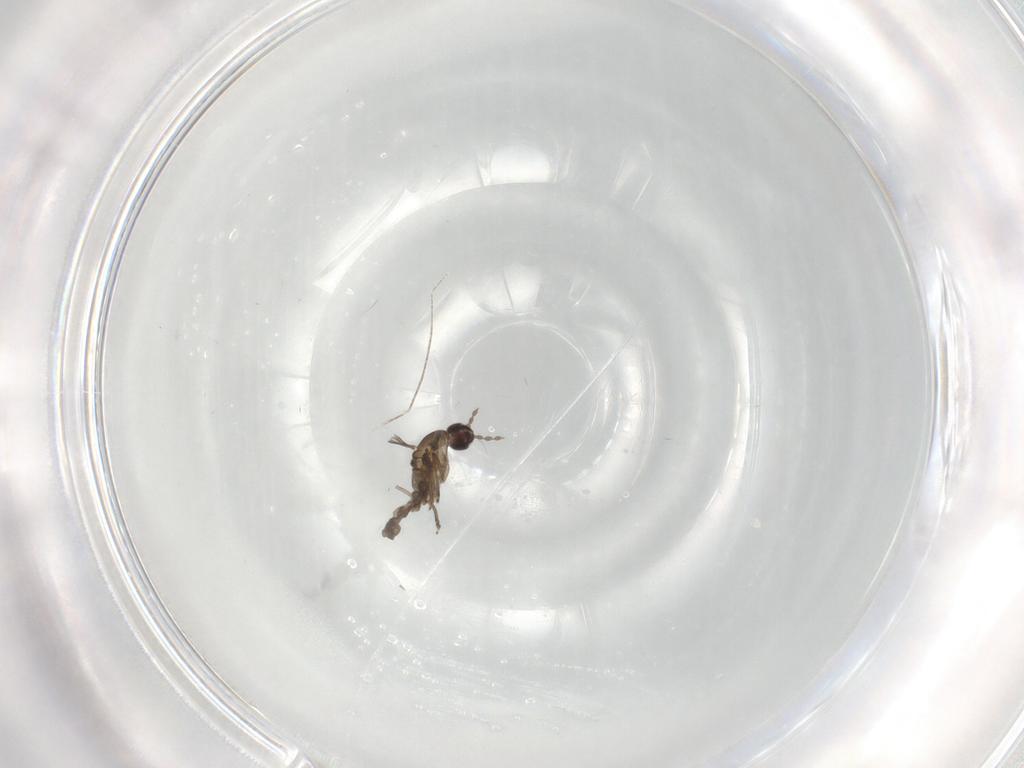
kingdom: Animalia
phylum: Arthropoda
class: Insecta
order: Diptera
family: Cecidomyiidae
